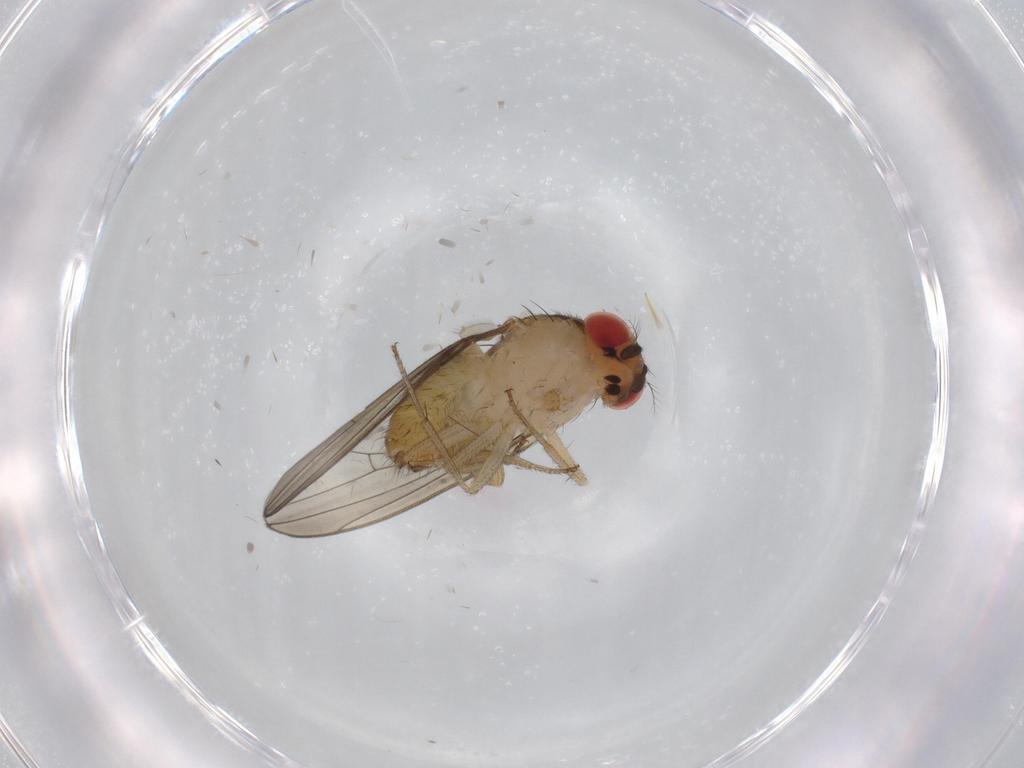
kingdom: Animalia
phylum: Arthropoda
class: Insecta
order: Diptera
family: Drosophilidae
